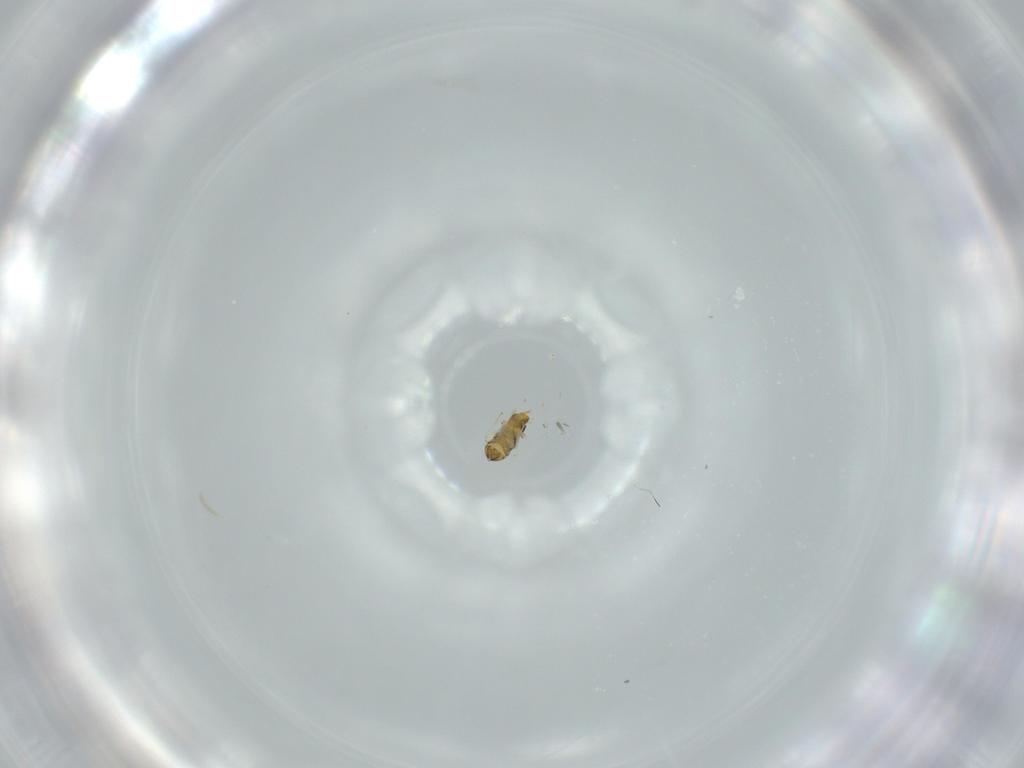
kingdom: Animalia
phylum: Arthropoda
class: Insecta
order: Hymenoptera
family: Aphelinidae
